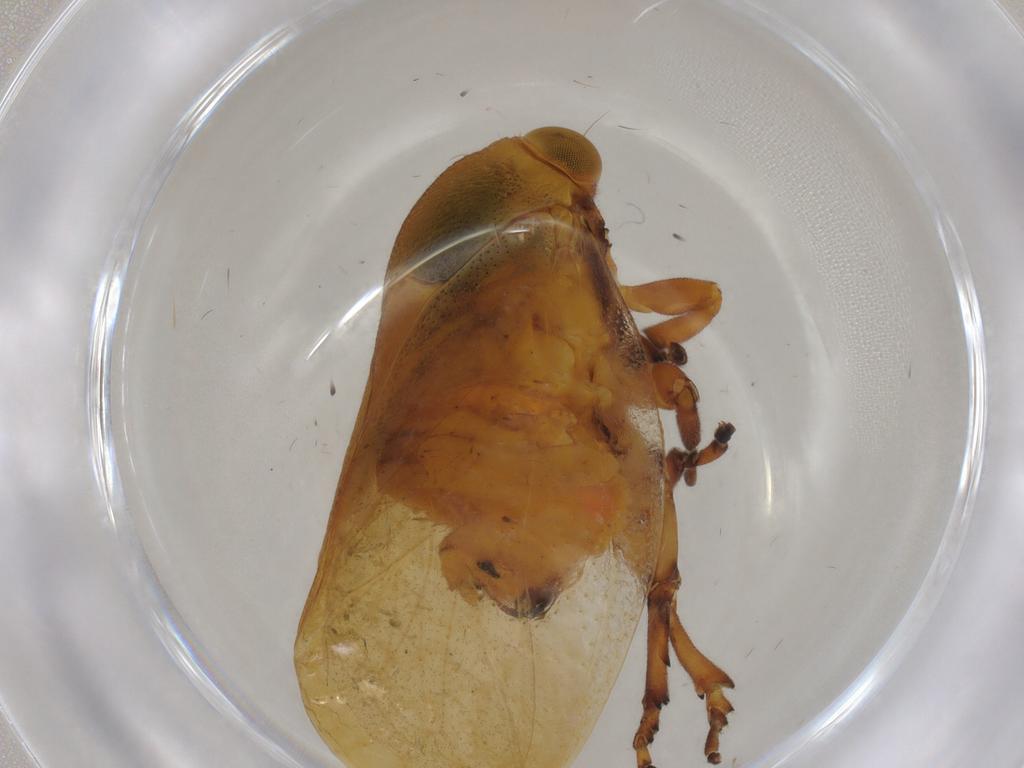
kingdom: Animalia
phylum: Arthropoda
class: Insecta
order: Hemiptera
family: Machaerotidae
